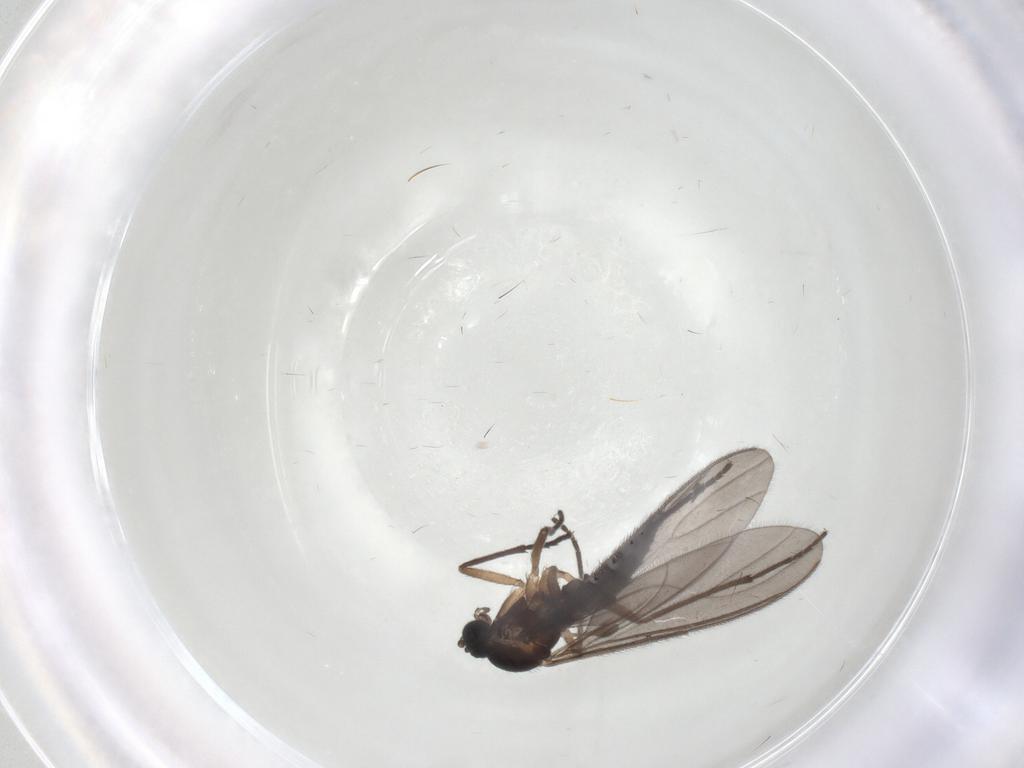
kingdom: Animalia
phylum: Arthropoda
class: Insecta
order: Diptera
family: Sciaridae
